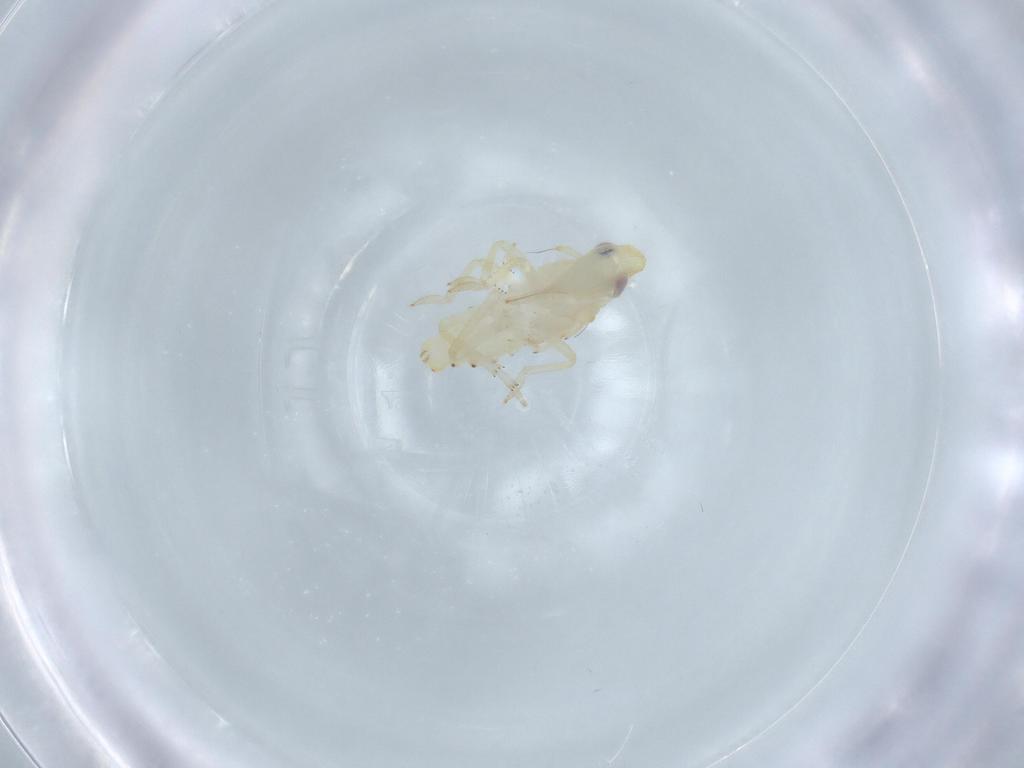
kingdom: Animalia
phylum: Arthropoda
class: Insecta
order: Hemiptera
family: Tropiduchidae
